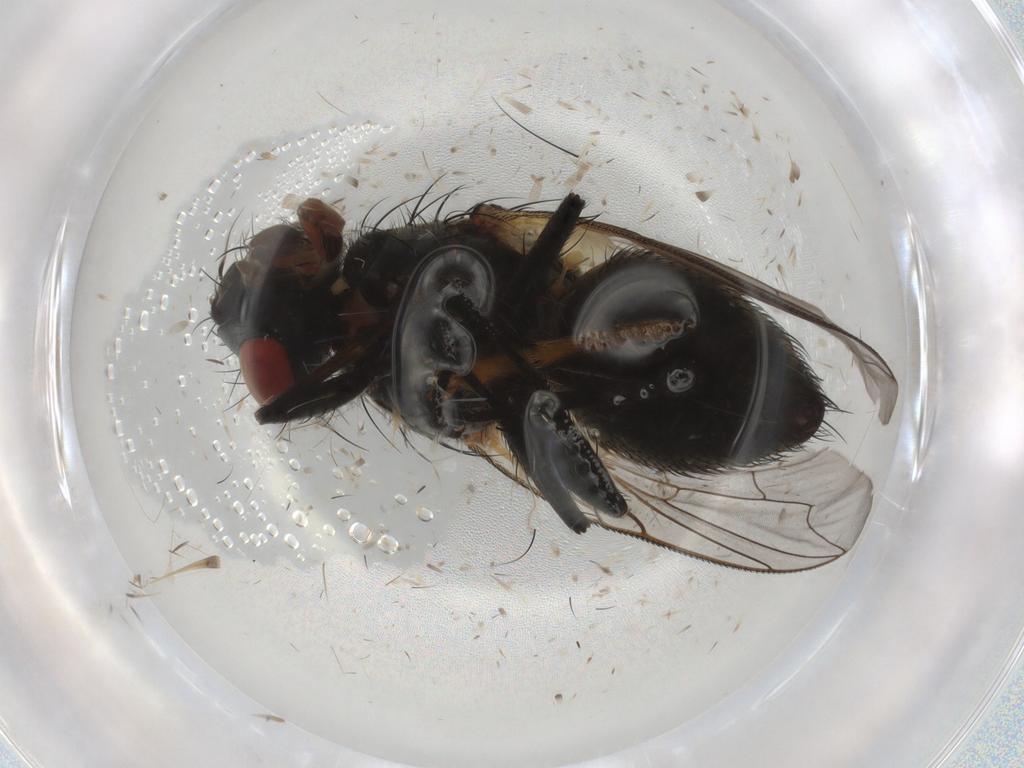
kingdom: Animalia
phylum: Arthropoda
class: Insecta
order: Diptera
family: Sarcophagidae
